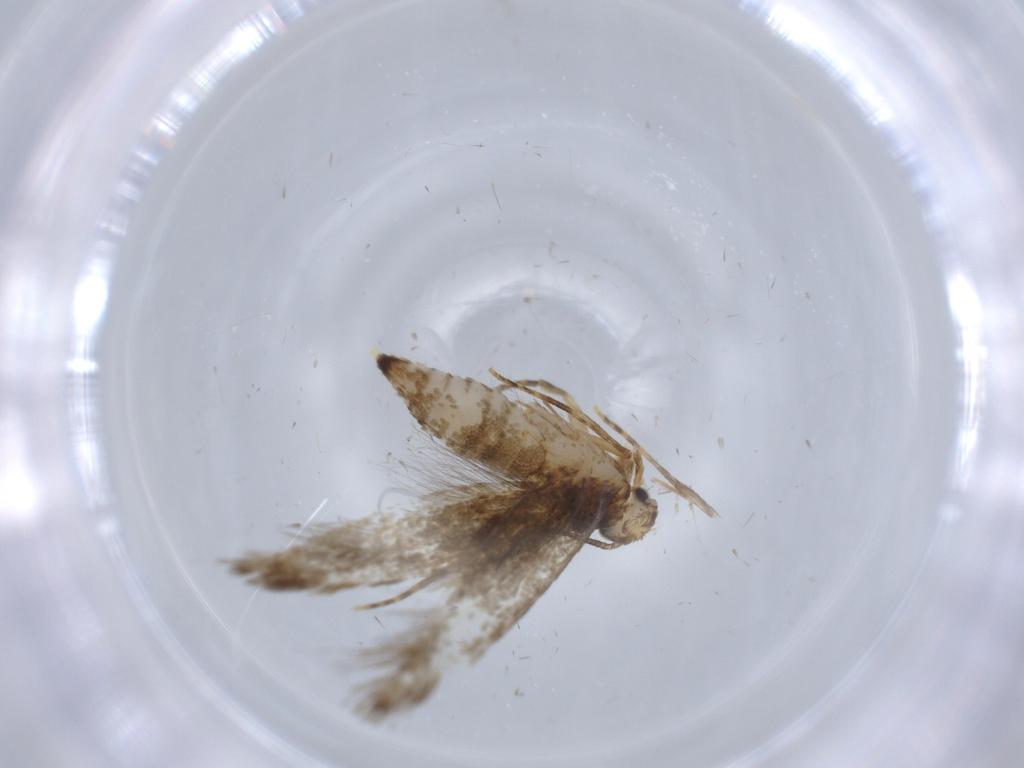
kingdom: Animalia
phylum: Arthropoda
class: Insecta
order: Lepidoptera
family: Tineidae
